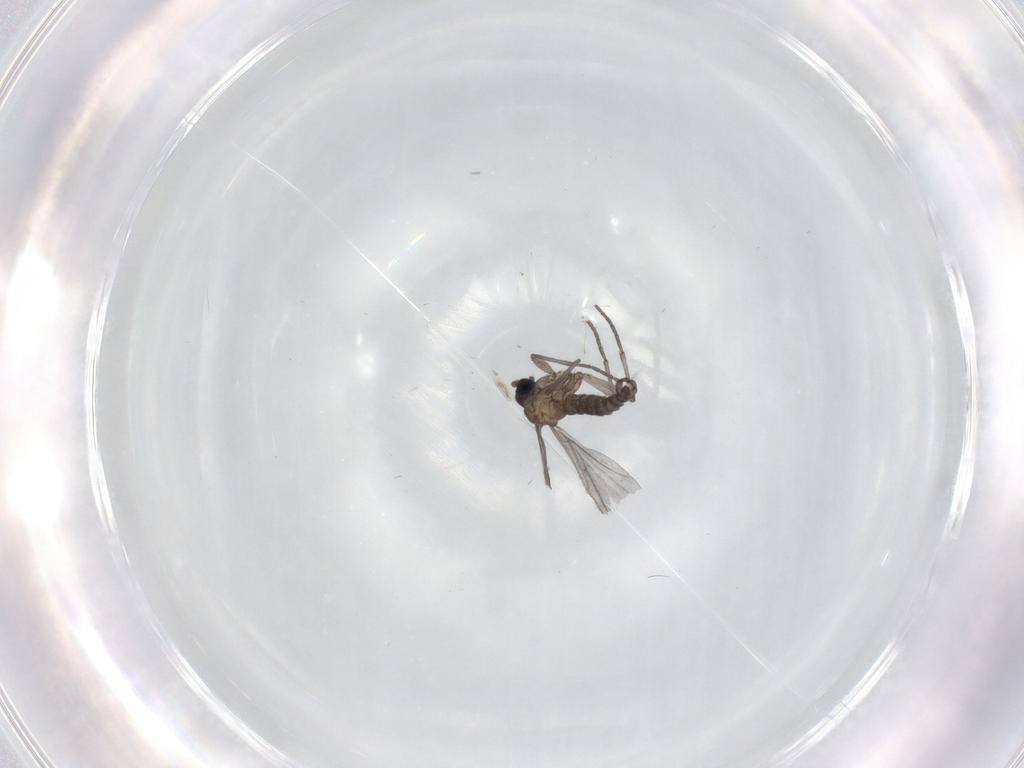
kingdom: Animalia
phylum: Arthropoda
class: Insecta
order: Diptera
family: Sciaridae
